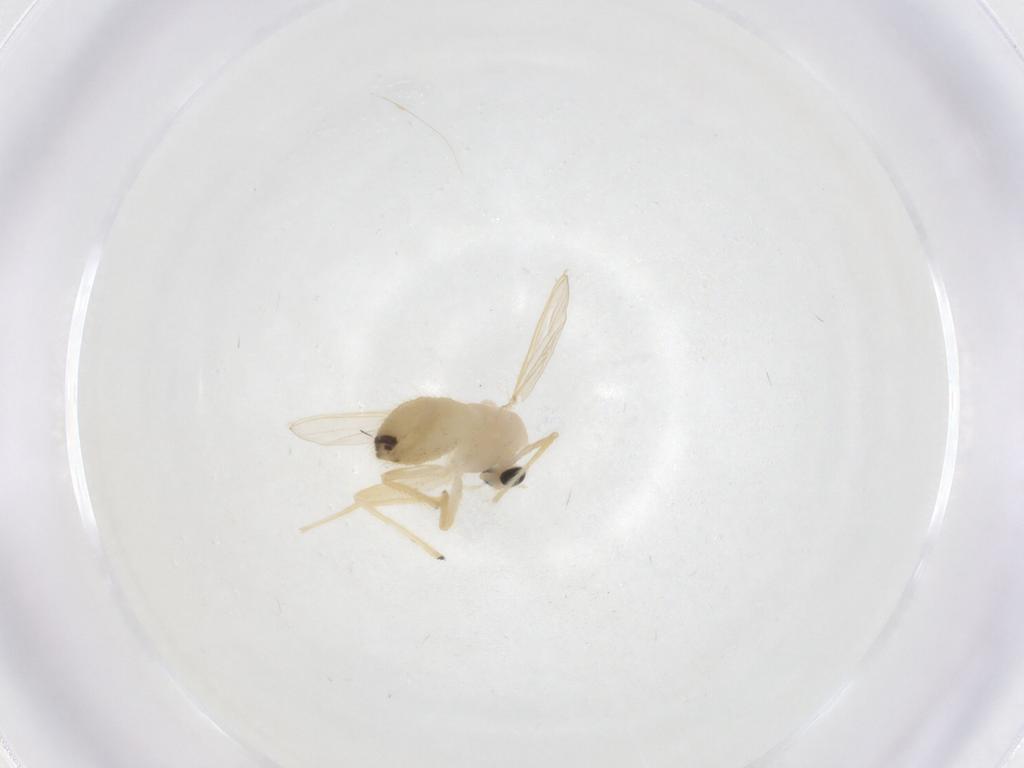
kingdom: Animalia
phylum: Arthropoda
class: Insecta
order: Diptera
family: Chironomidae
